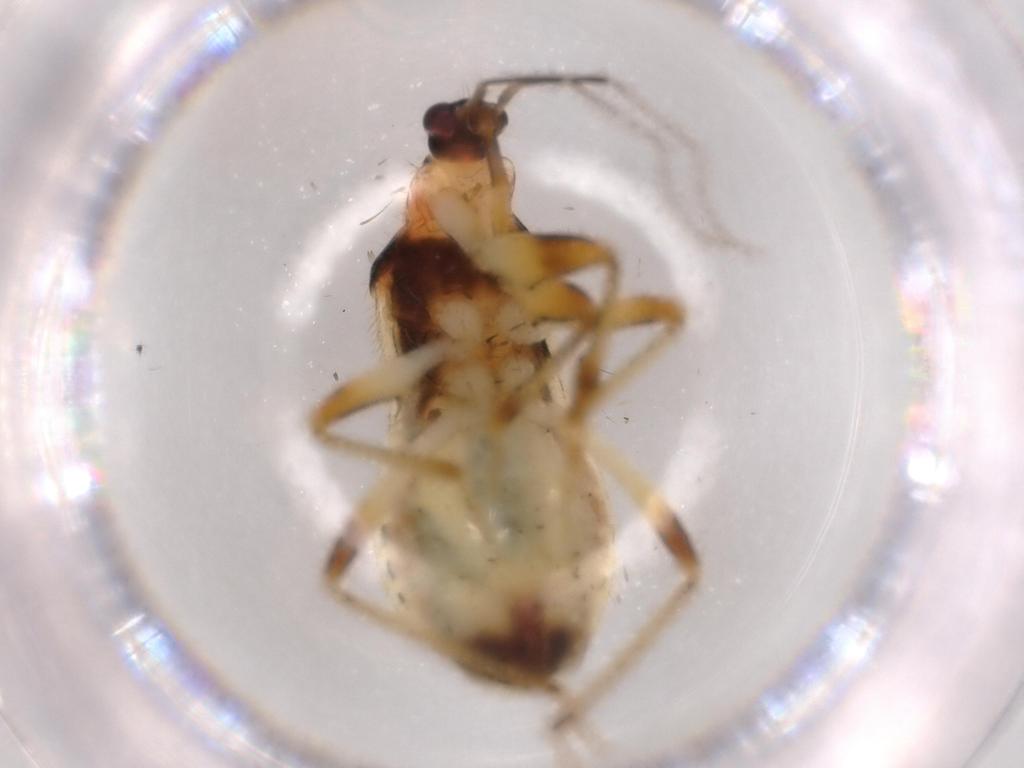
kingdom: Animalia
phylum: Arthropoda
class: Insecta
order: Hemiptera
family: Nabidae
